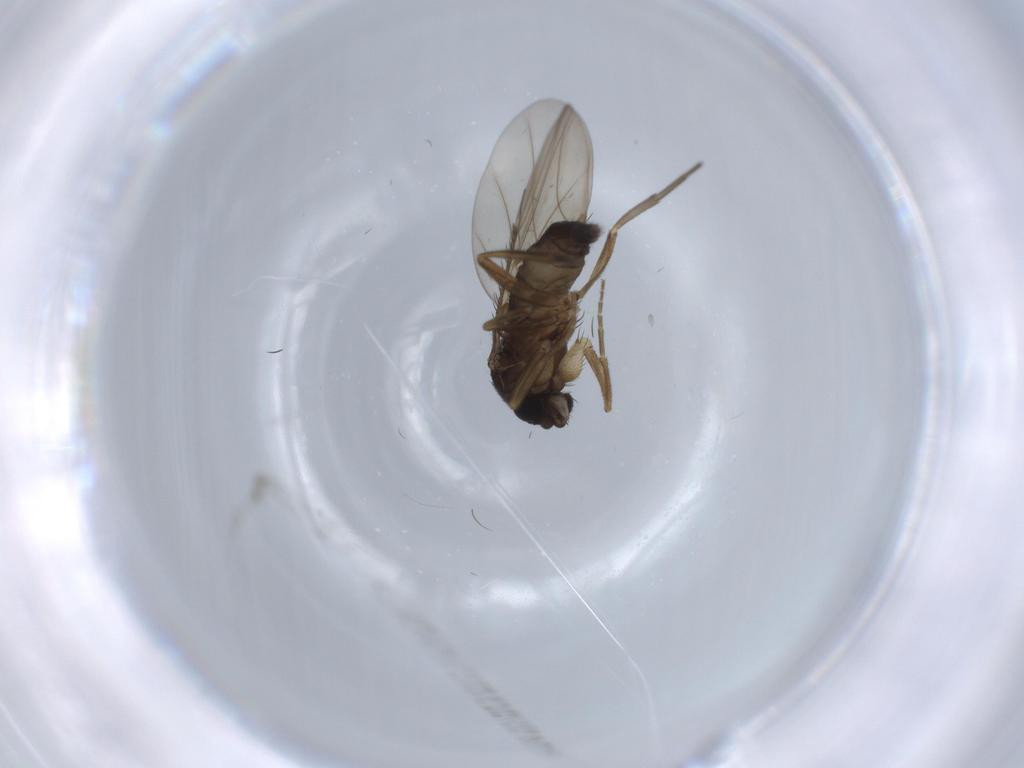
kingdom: Animalia
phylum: Arthropoda
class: Insecta
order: Diptera
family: Phoridae
